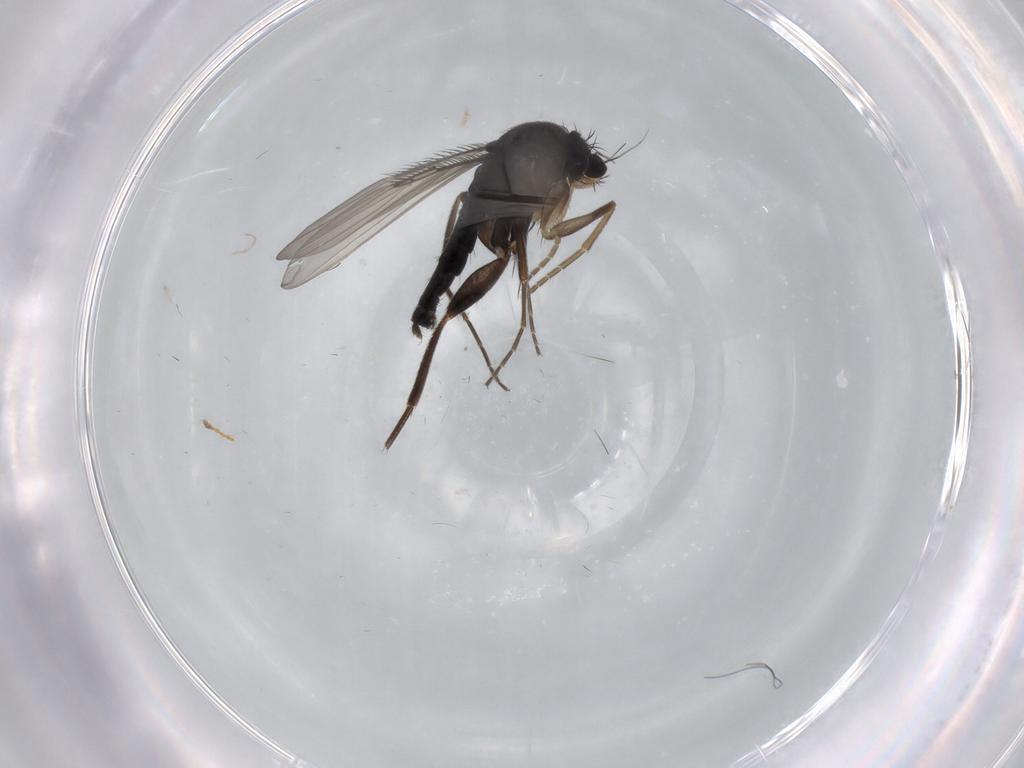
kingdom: Animalia
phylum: Arthropoda
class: Insecta
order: Diptera
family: Phoridae
